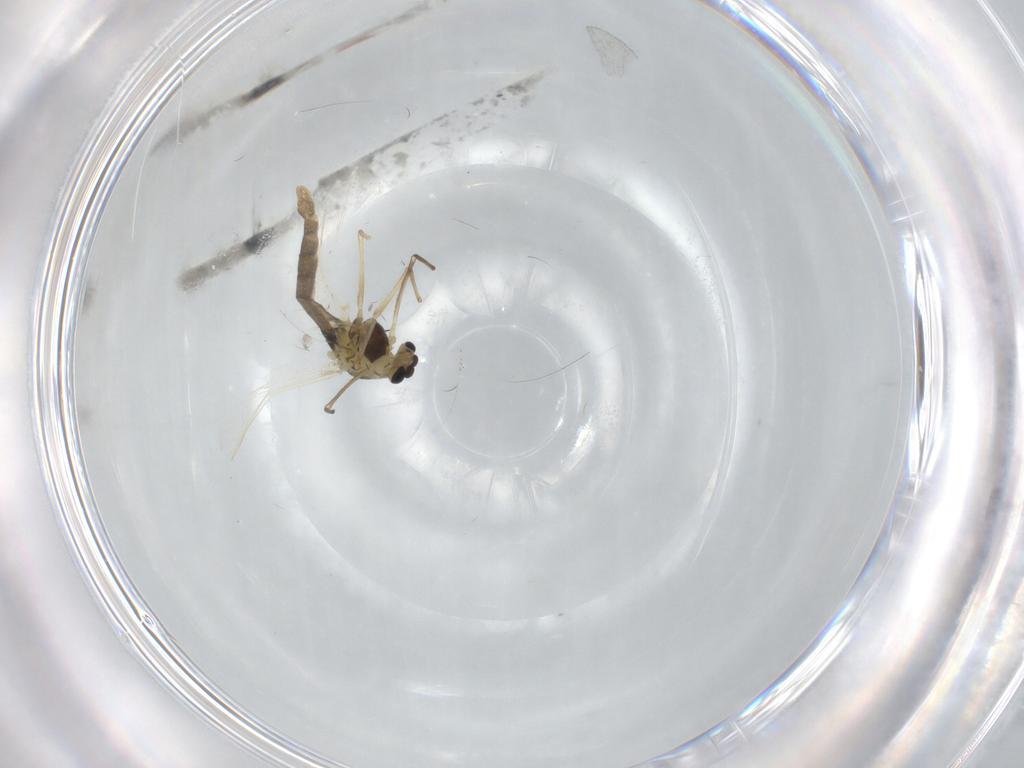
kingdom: Animalia
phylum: Arthropoda
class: Insecta
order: Diptera
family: Chironomidae
